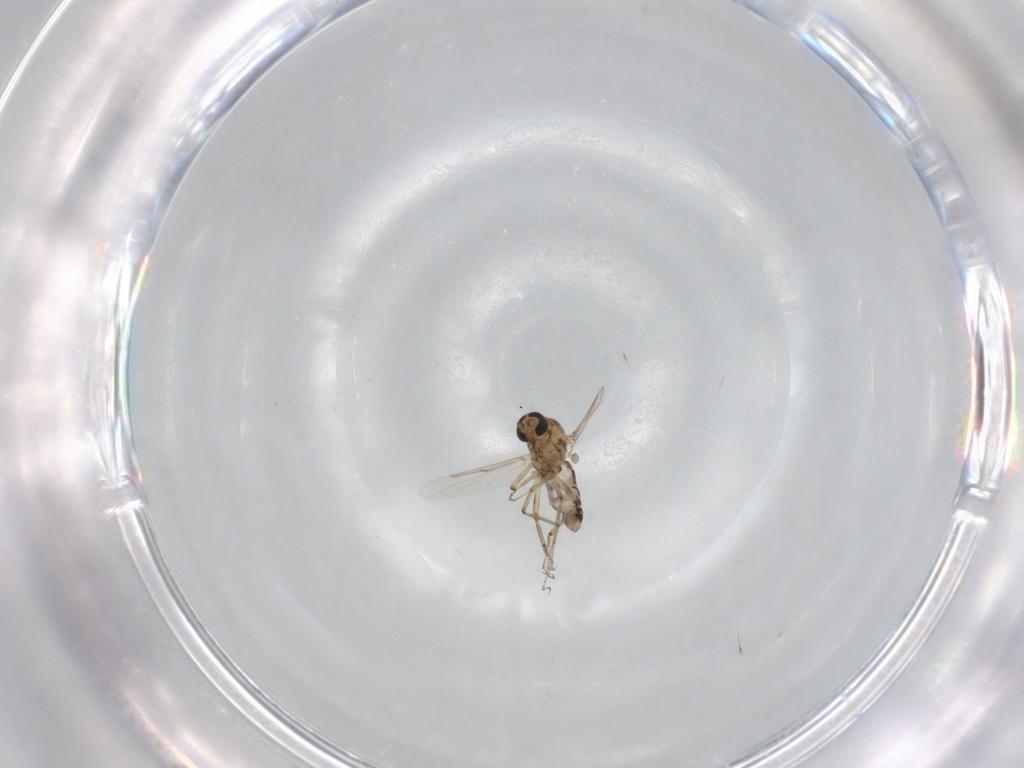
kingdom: Animalia
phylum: Arthropoda
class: Insecta
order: Diptera
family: Ceratopogonidae
